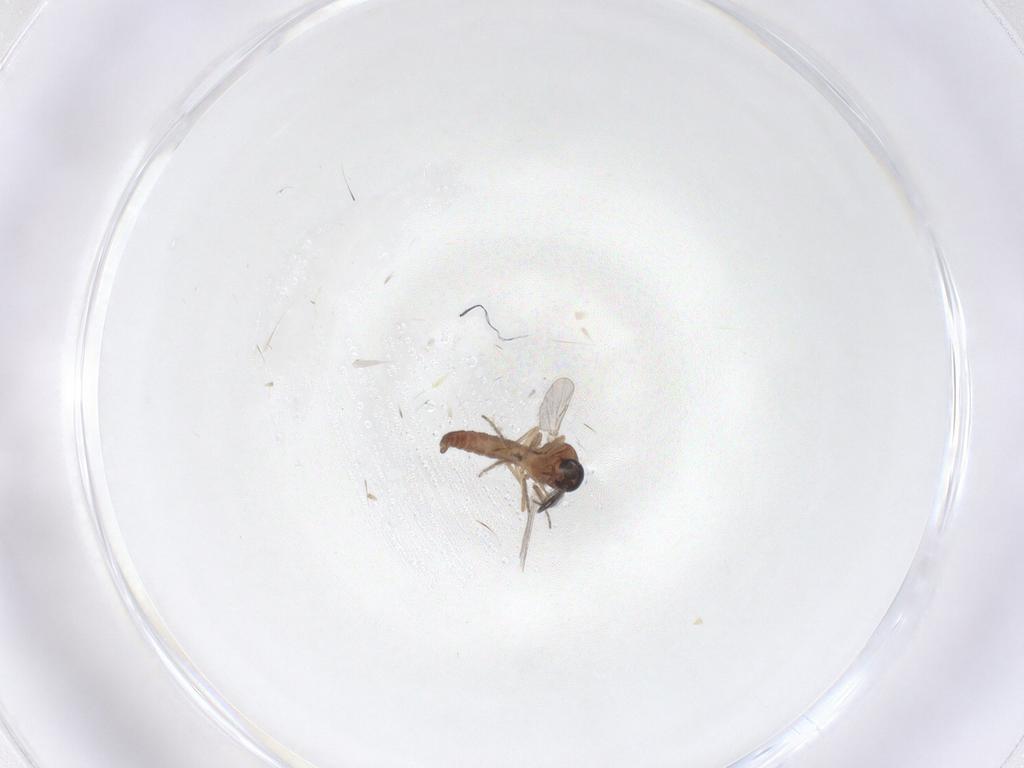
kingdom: Animalia
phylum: Arthropoda
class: Insecta
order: Diptera
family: Ceratopogonidae
